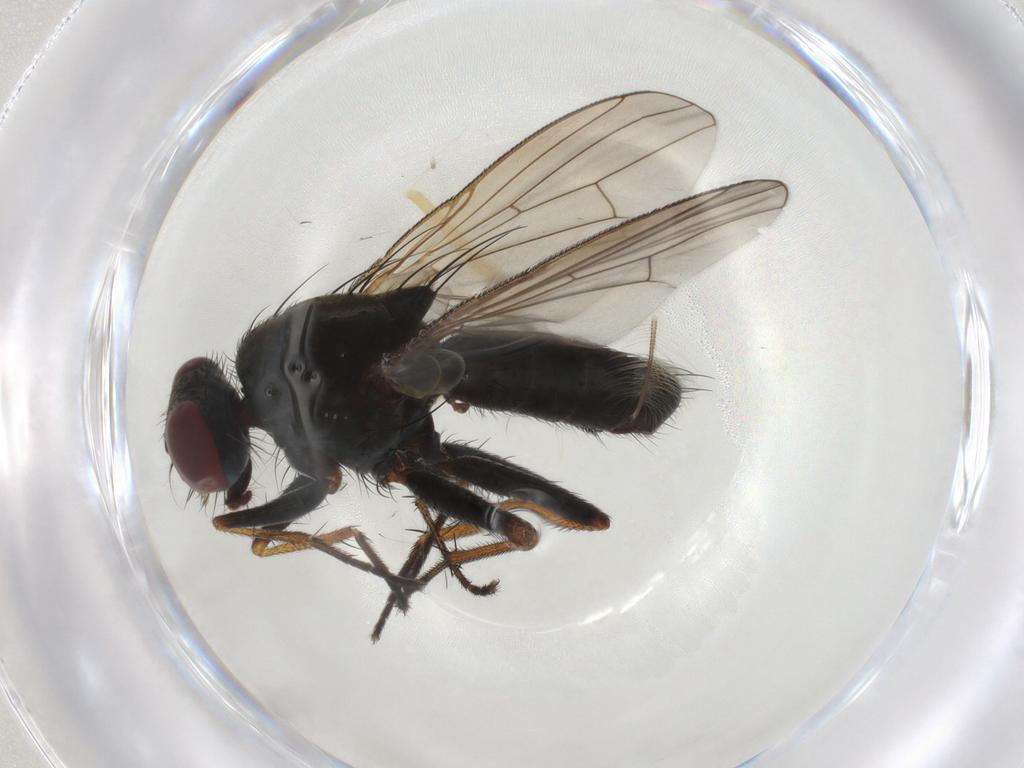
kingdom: Animalia
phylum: Arthropoda
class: Insecta
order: Diptera
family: Muscidae
